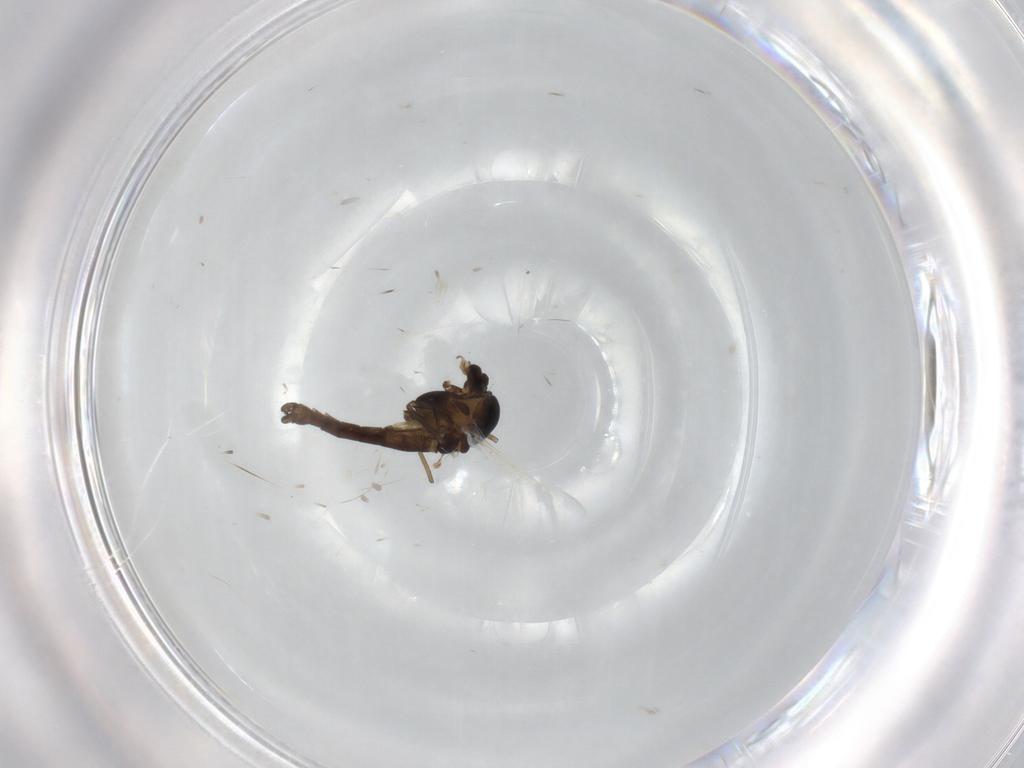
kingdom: Animalia
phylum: Arthropoda
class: Insecta
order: Diptera
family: Chironomidae
